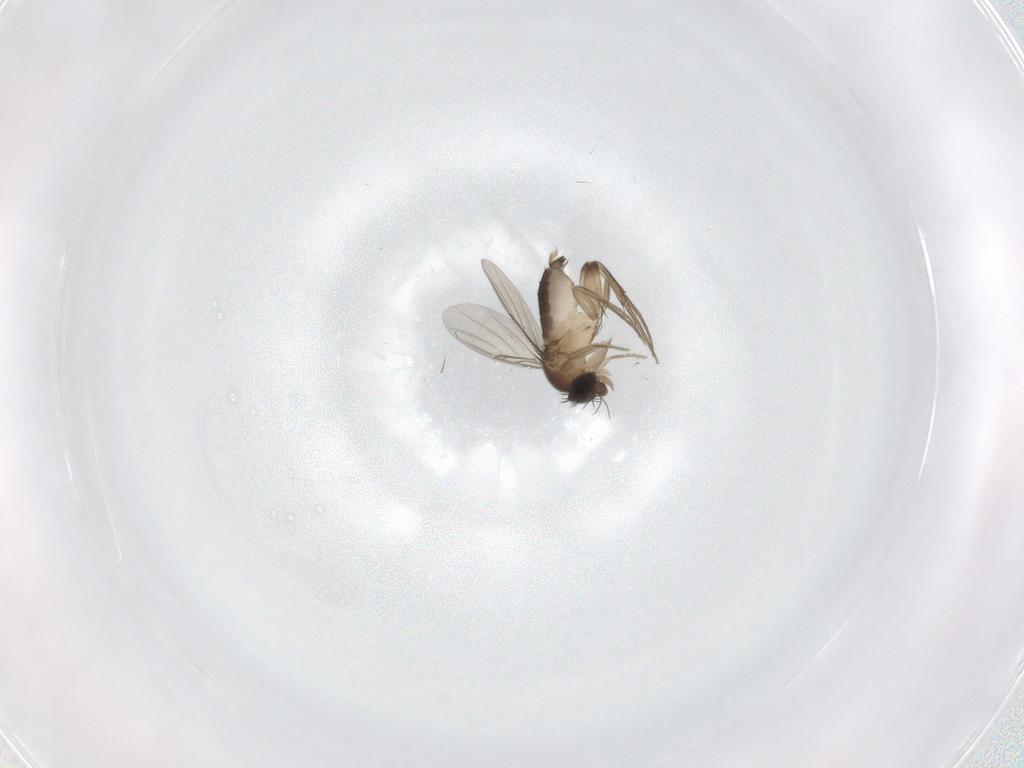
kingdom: Animalia
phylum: Arthropoda
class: Insecta
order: Diptera
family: Phoridae
